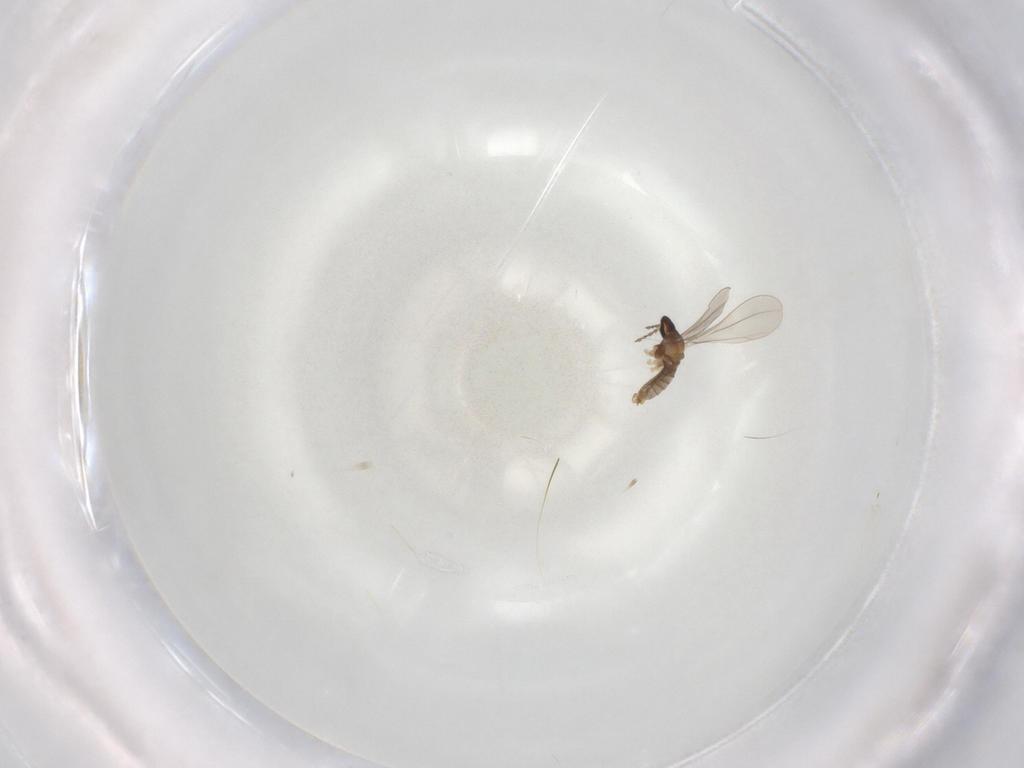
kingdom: Animalia
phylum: Arthropoda
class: Insecta
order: Diptera
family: Cecidomyiidae
